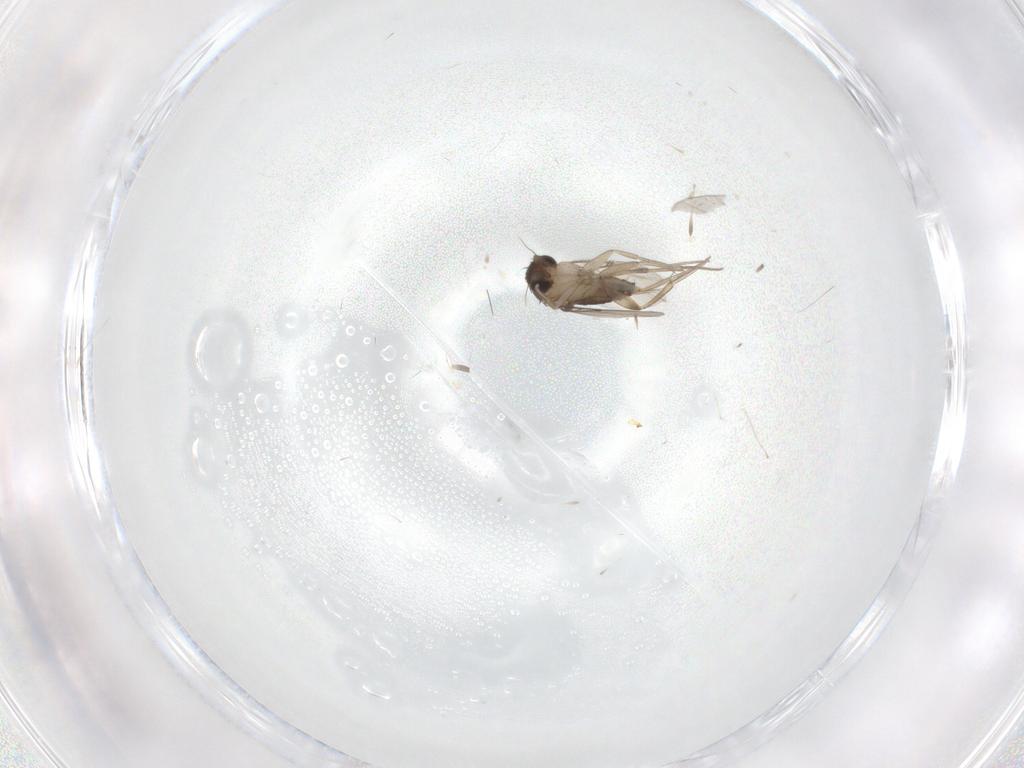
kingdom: Animalia
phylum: Arthropoda
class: Insecta
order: Diptera
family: Phoridae
